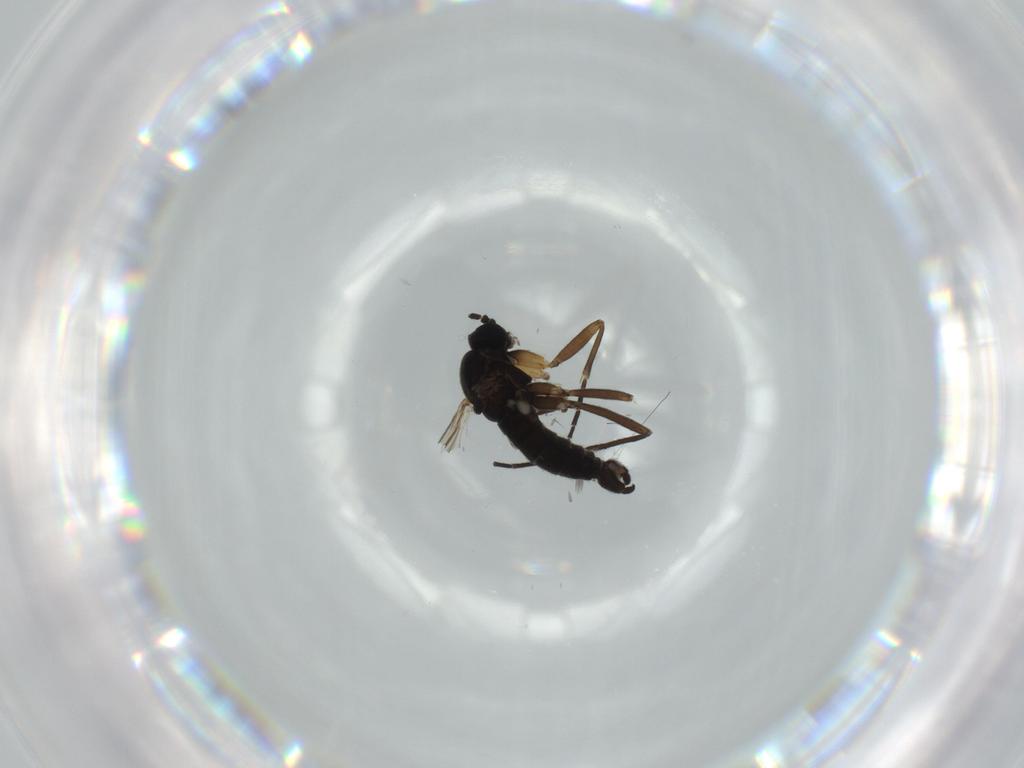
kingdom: Animalia
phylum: Arthropoda
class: Insecta
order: Diptera
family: Sciaridae
